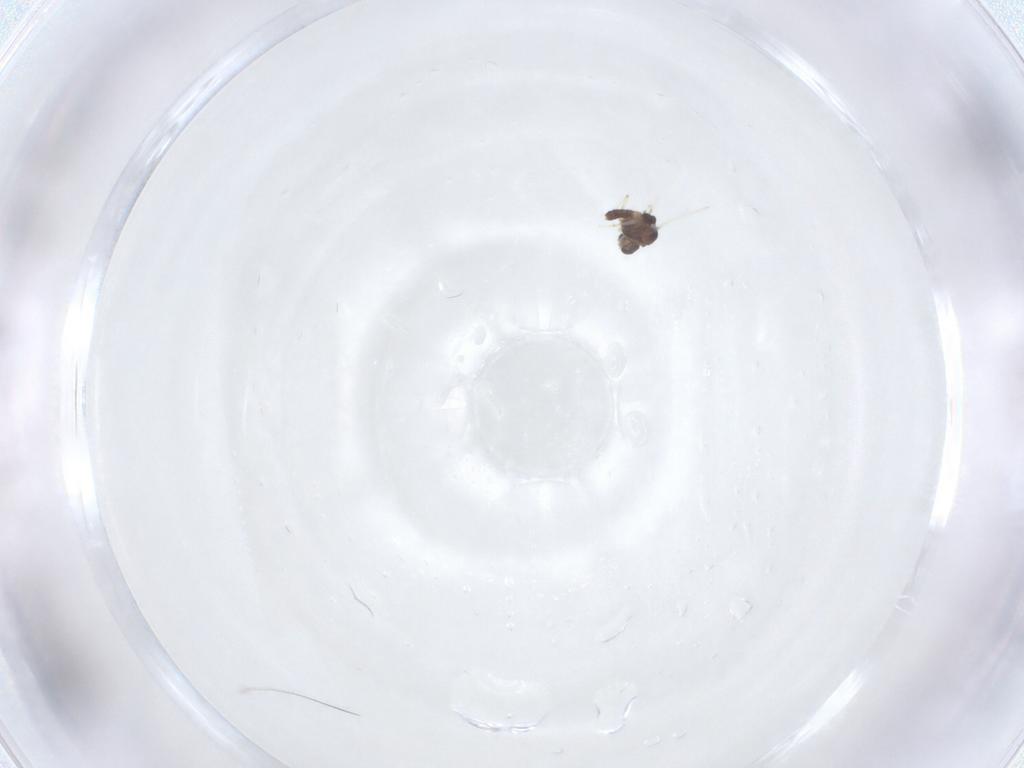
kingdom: Animalia
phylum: Arthropoda
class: Insecta
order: Diptera
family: Chironomidae
